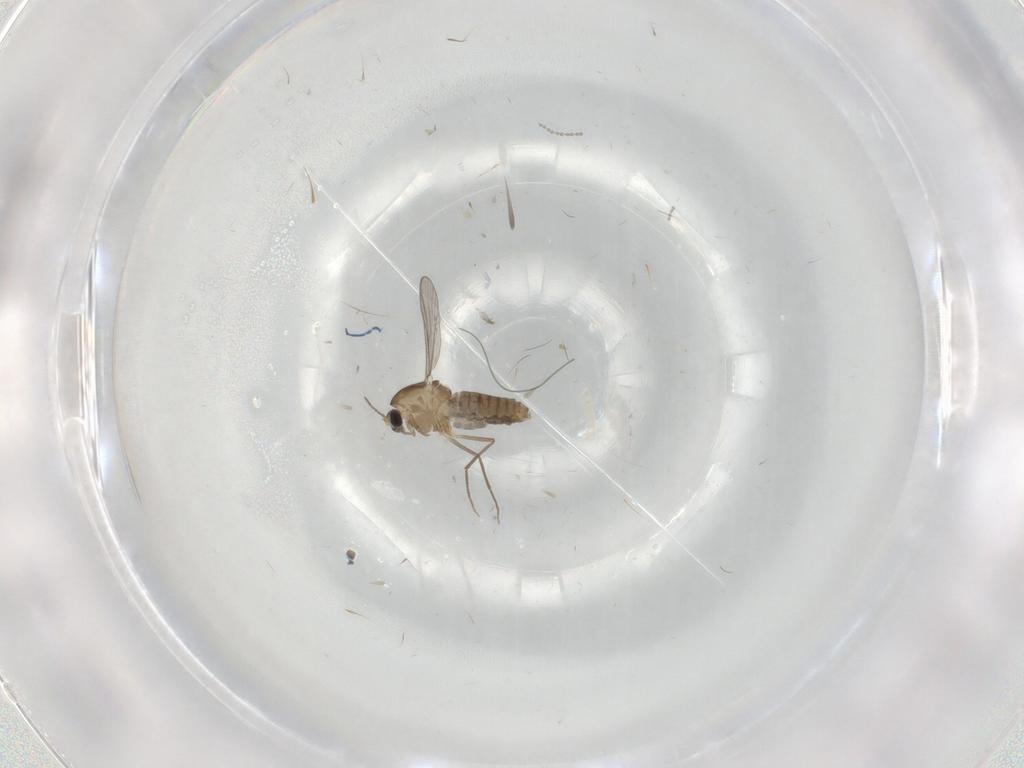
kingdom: Animalia
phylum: Arthropoda
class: Insecta
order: Diptera
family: Chironomidae
